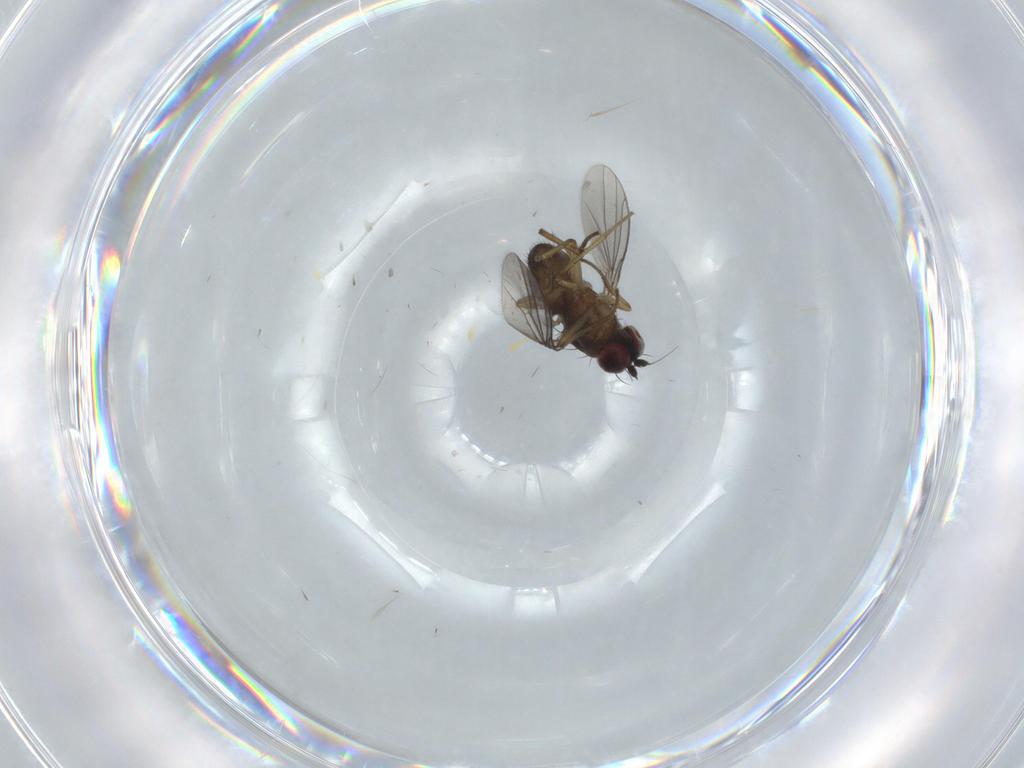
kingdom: Animalia
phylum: Arthropoda
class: Insecta
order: Diptera
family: Dolichopodidae
